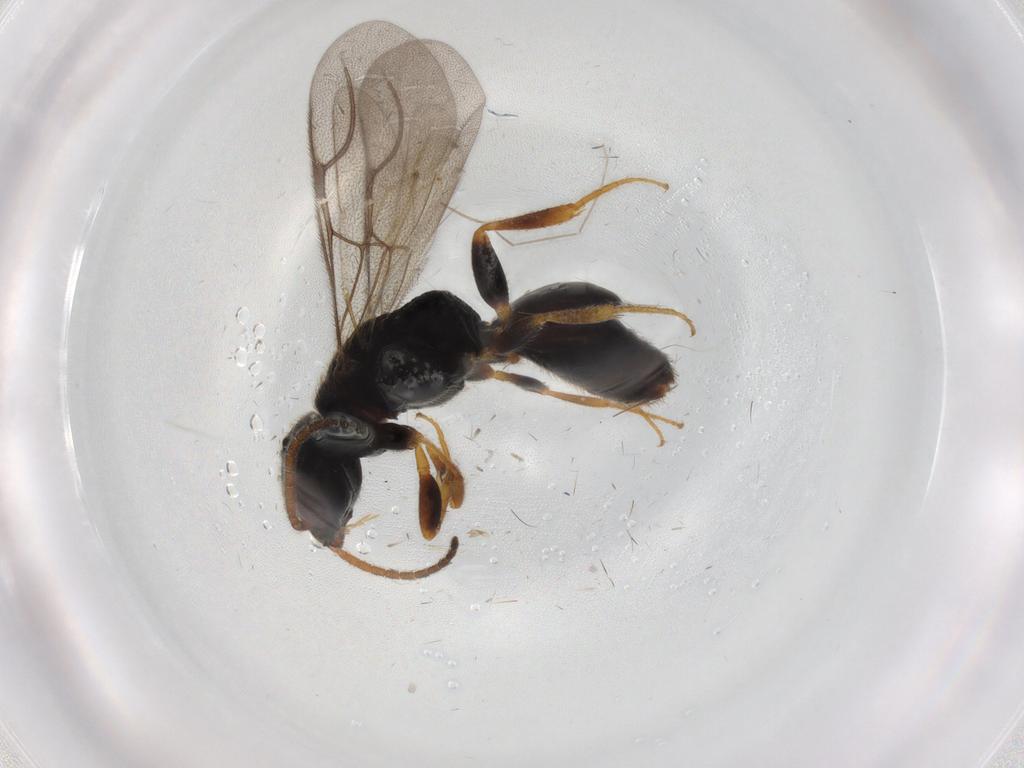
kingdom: Animalia
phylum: Arthropoda
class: Insecta
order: Hymenoptera
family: Bethylidae
